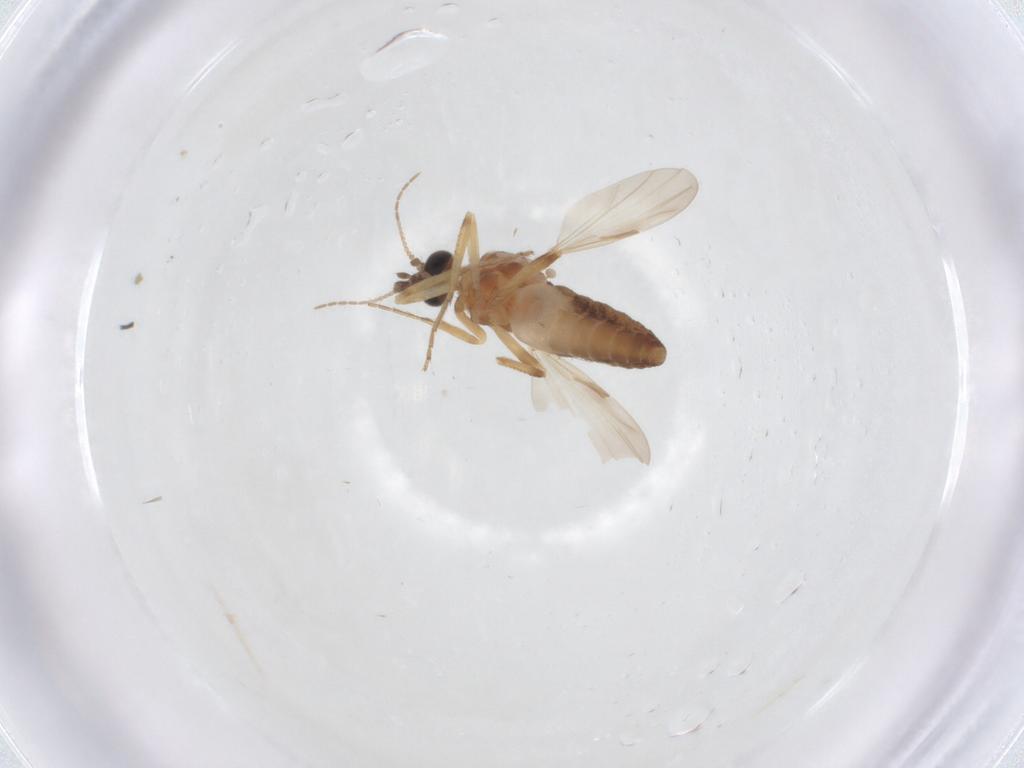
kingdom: Animalia
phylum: Arthropoda
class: Insecta
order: Diptera
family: Ceratopogonidae
